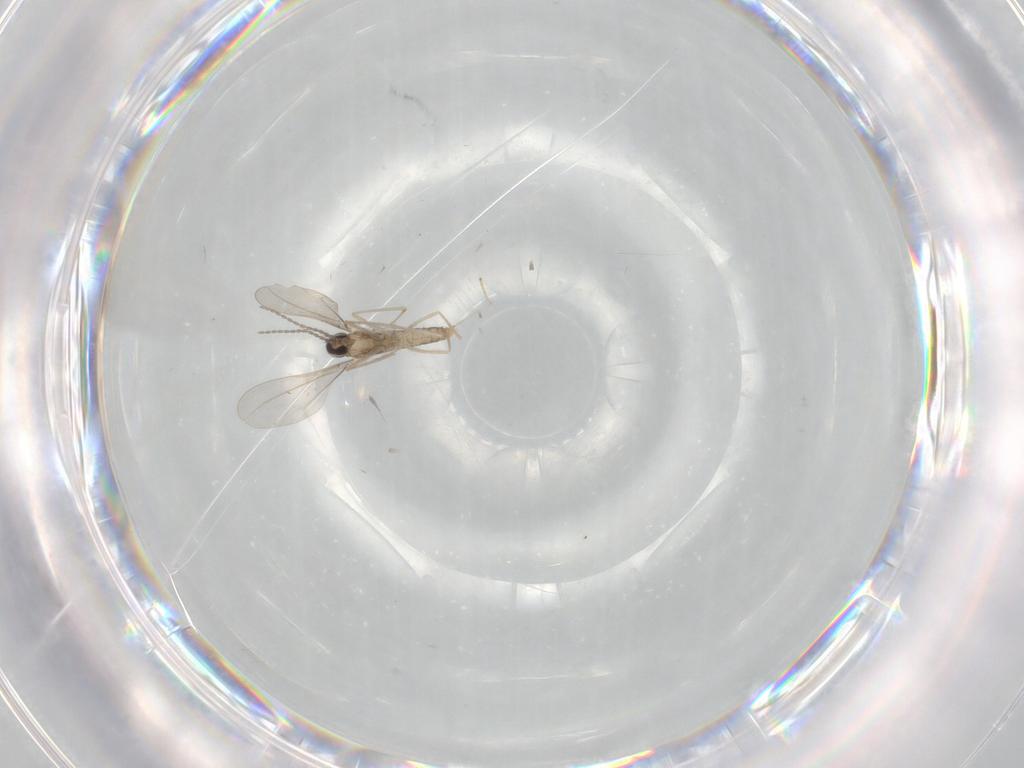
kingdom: Animalia
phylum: Arthropoda
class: Insecta
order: Diptera
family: Cecidomyiidae
